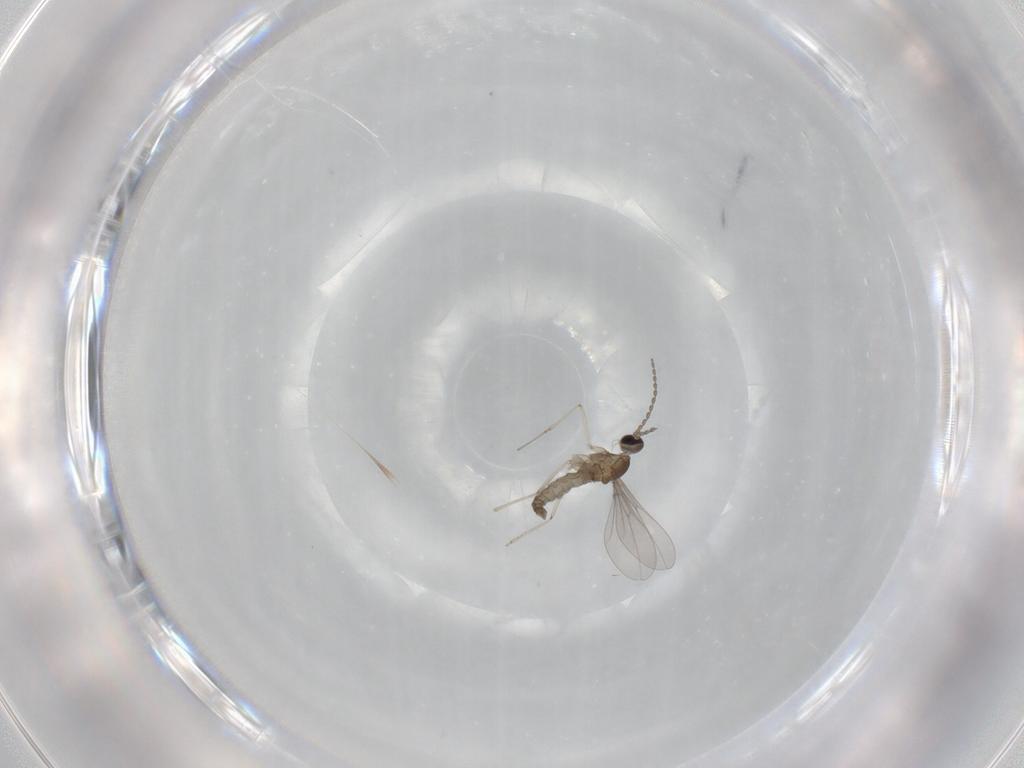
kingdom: Animalia
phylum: Arthropoda
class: Insecta
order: Diptera
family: Cecidomyiidae
